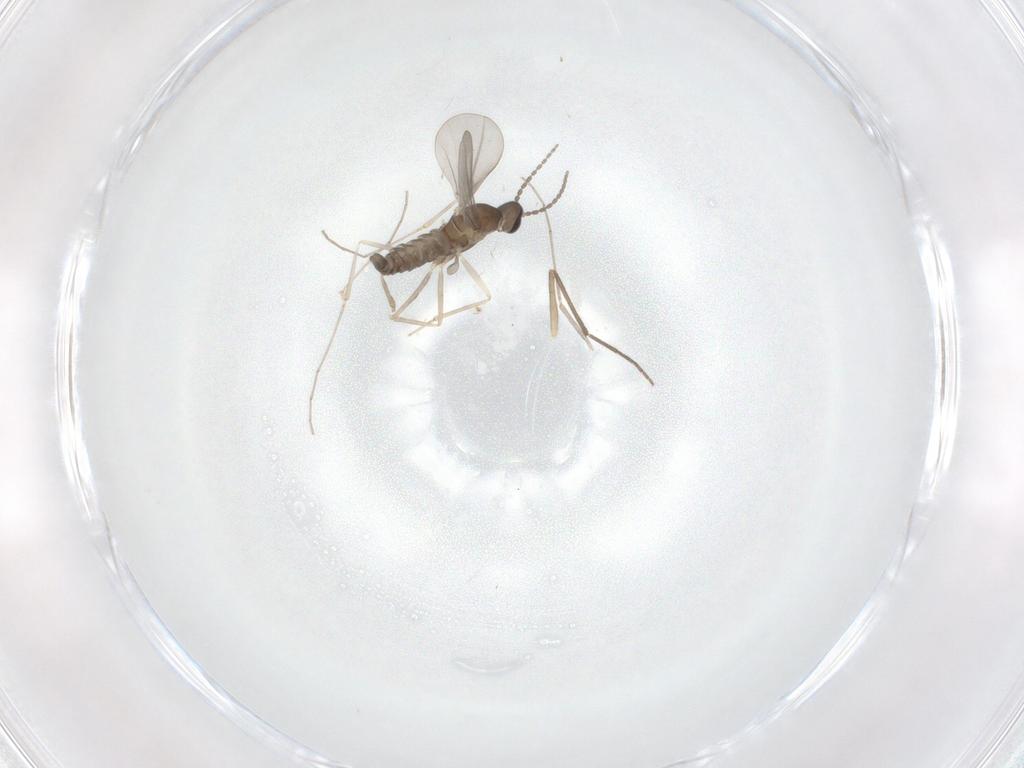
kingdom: Animalia
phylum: Arthropoda
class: Insecta
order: Diptera
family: Cecidomyiidae
